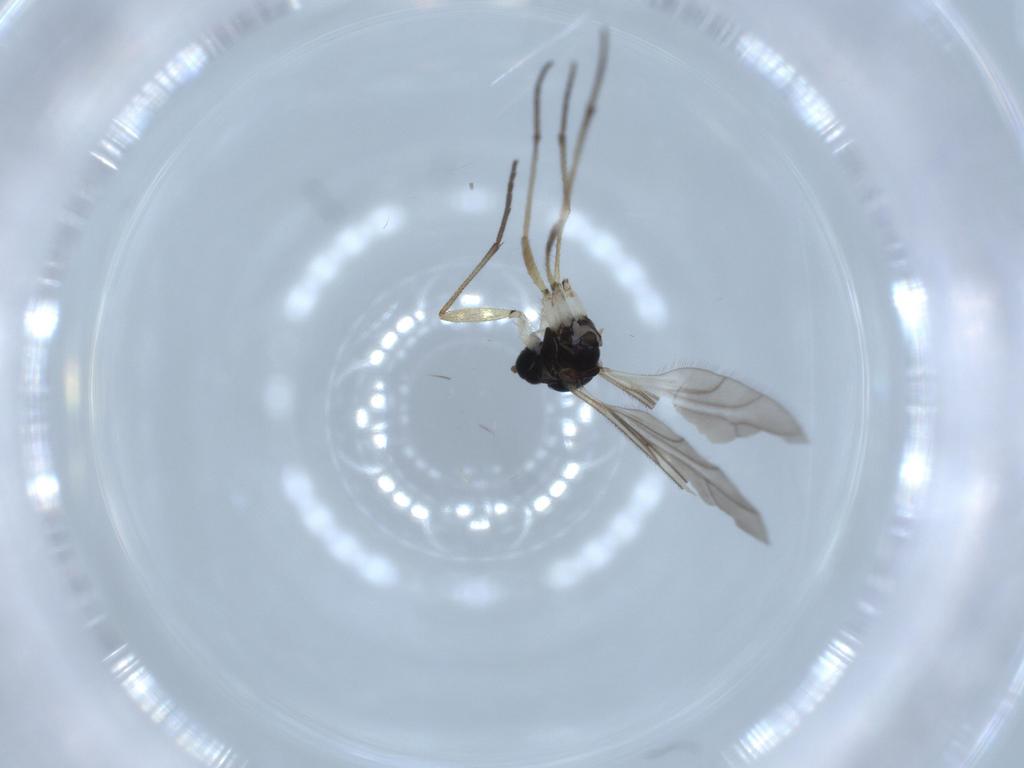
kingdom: Animalia
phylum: Arthropoda
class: Insecta
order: Diptera
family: Sciaridae
